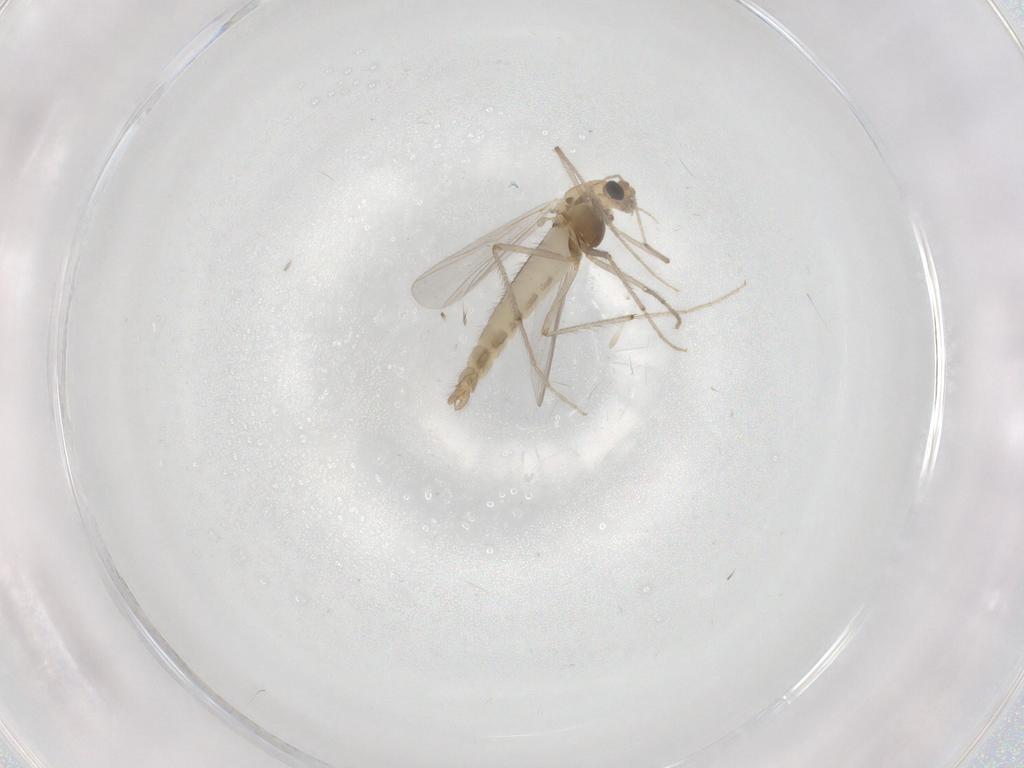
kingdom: Animalia
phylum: Arthropoda
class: Insecta
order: Diptera
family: Chironomidae
